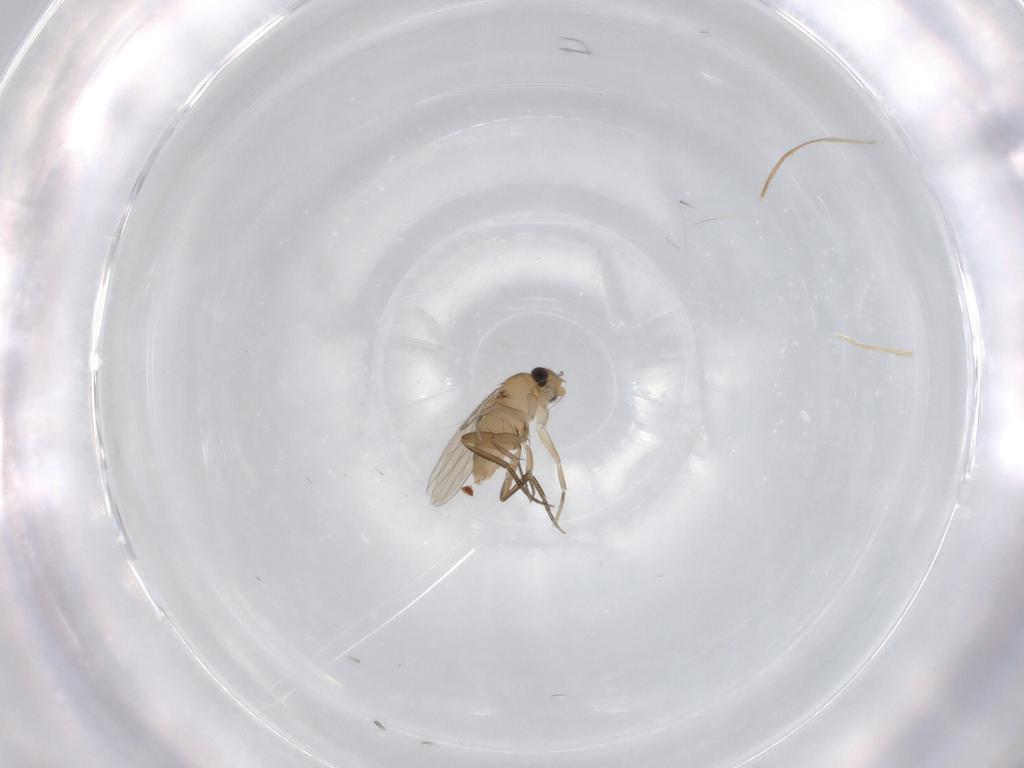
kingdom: Animalia
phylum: Arthropoda
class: Insecta
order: Diptera
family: Phoridae
